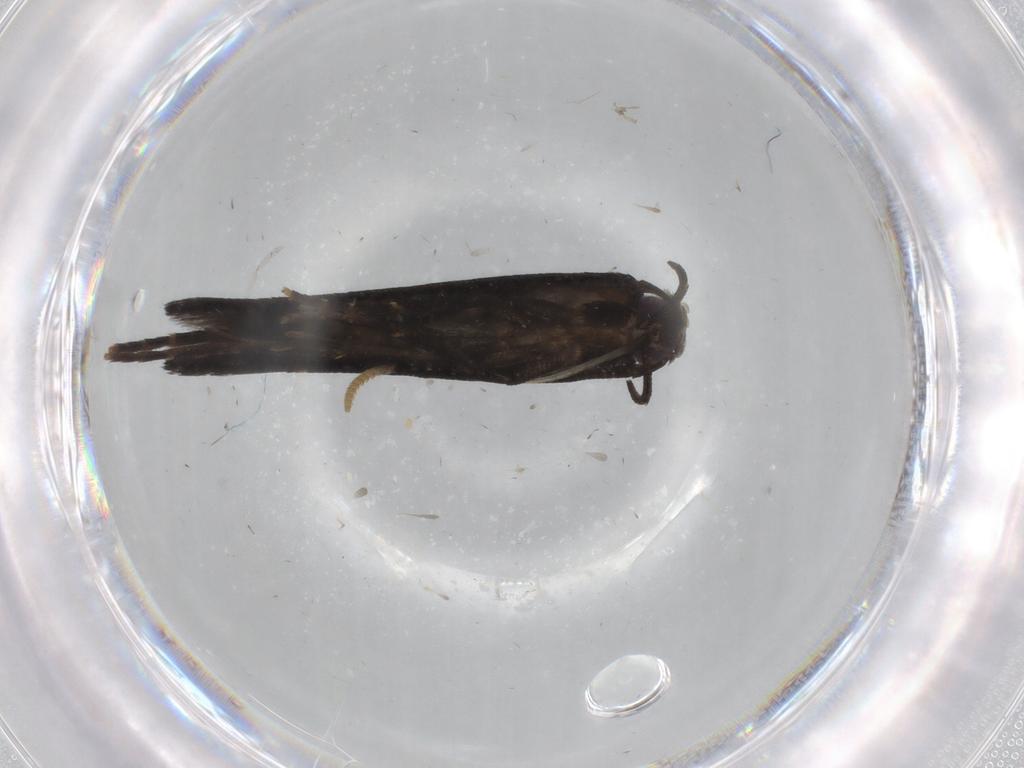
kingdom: Animalia
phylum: Arthropoda
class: Insecta
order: Lepidoptera
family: Cosmopterigidae
